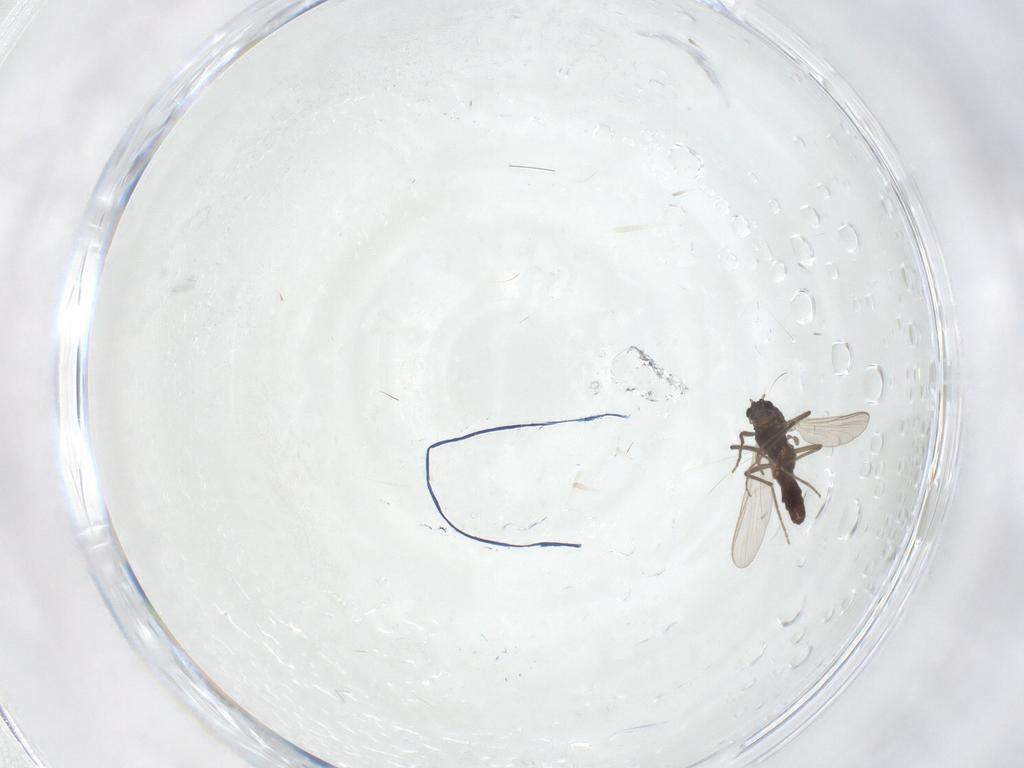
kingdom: Animalia
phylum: Arthropoda
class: Insecta
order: Diptera
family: Chironomidae
